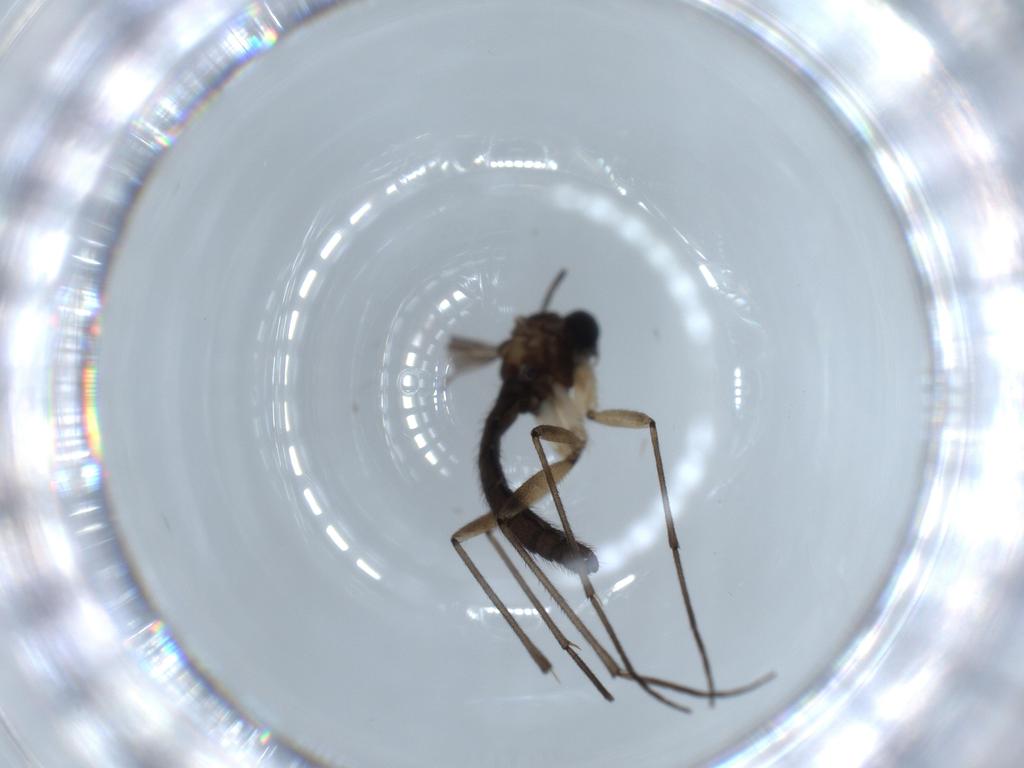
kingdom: Animalia
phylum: Arthropoda
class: Insecta
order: Diptera
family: Sciaridae
